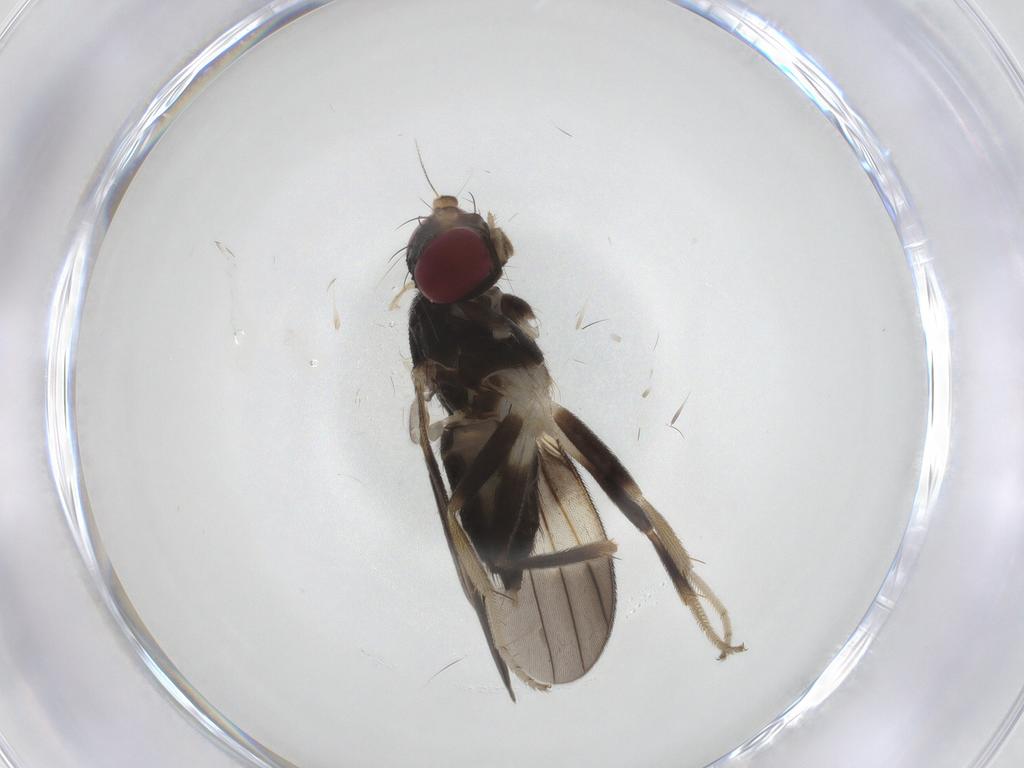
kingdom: Animalia
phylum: Arthropoda
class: Insecta
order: Diptera
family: Clusiidae
